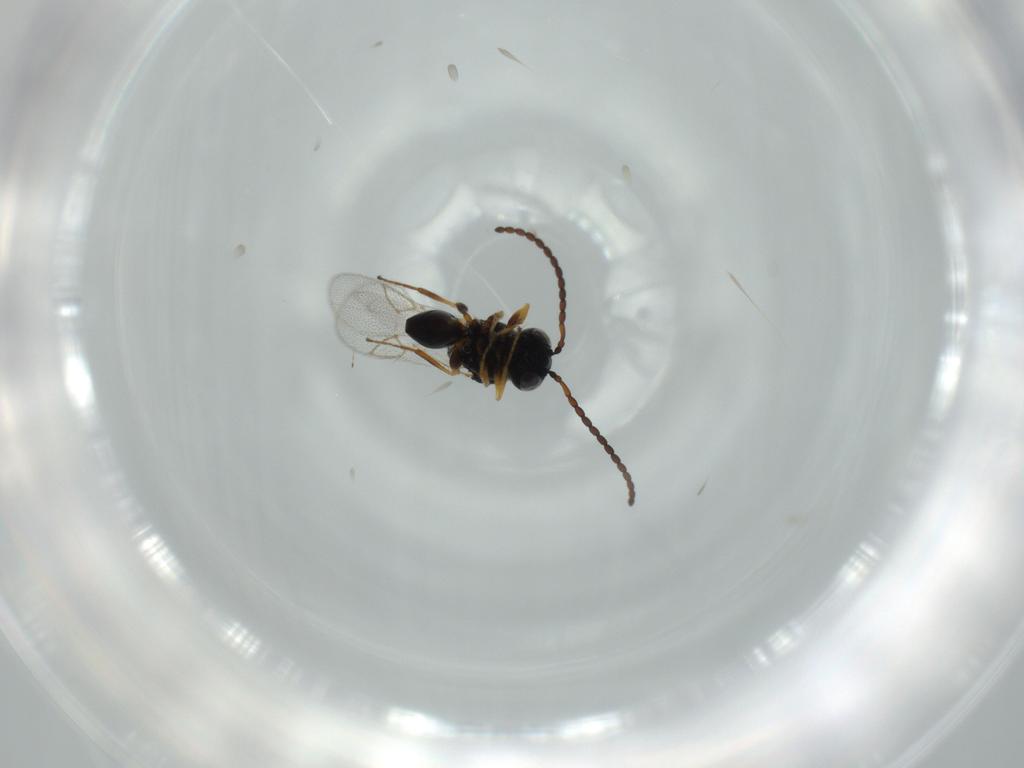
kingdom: Animalia
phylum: Arthropoda
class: Insecta
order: Hymenoptera
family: Figitidae
